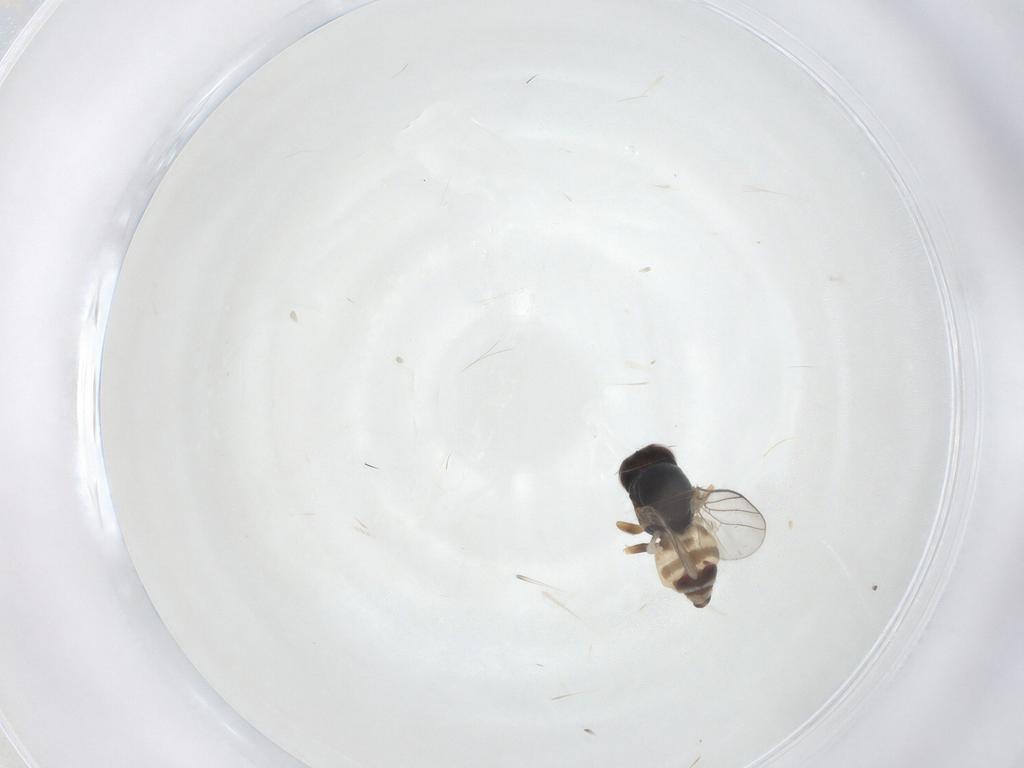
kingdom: Animalia
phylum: Arthropoda
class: Insecta
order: Diptera
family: Chloropidae
